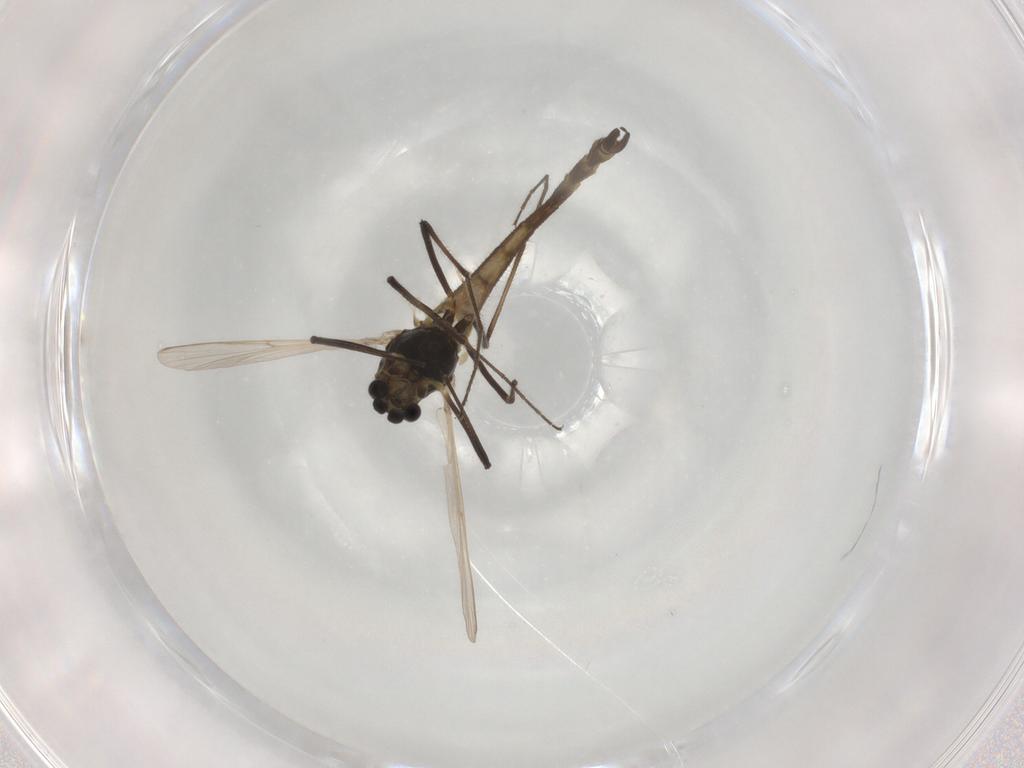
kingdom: Animalia
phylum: Arthropoda
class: Insecta
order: Diptera
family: Chironomidae
